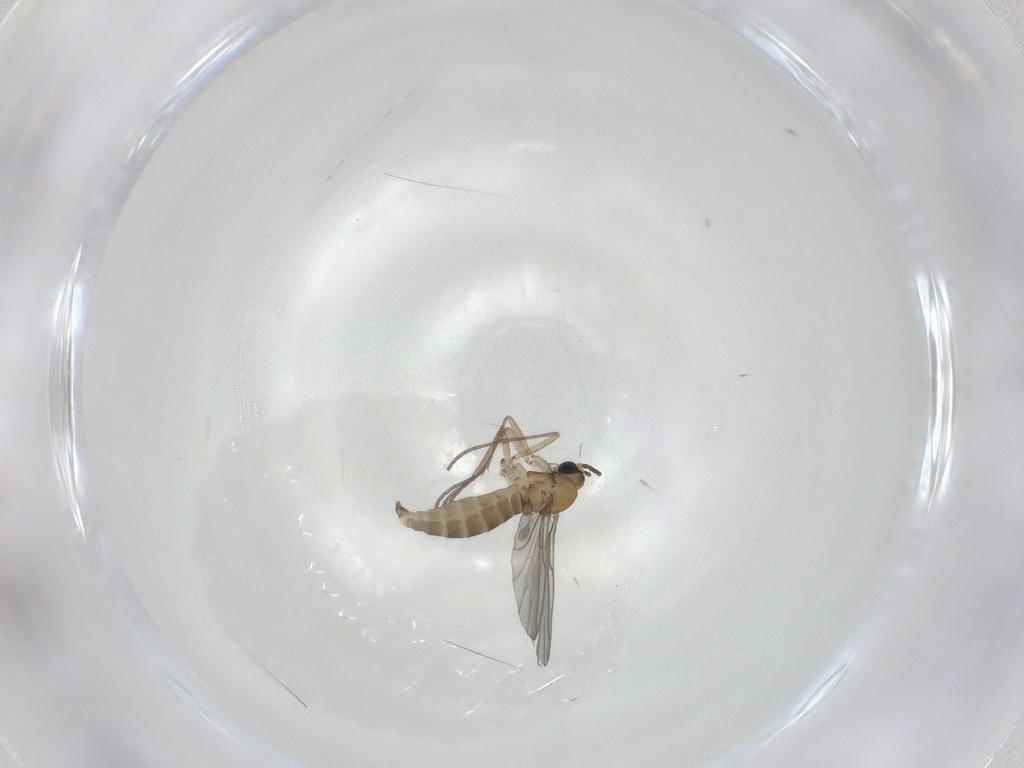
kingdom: Animalia
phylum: Arthropoda
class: Insecta
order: Diptera
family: Sciaridae
